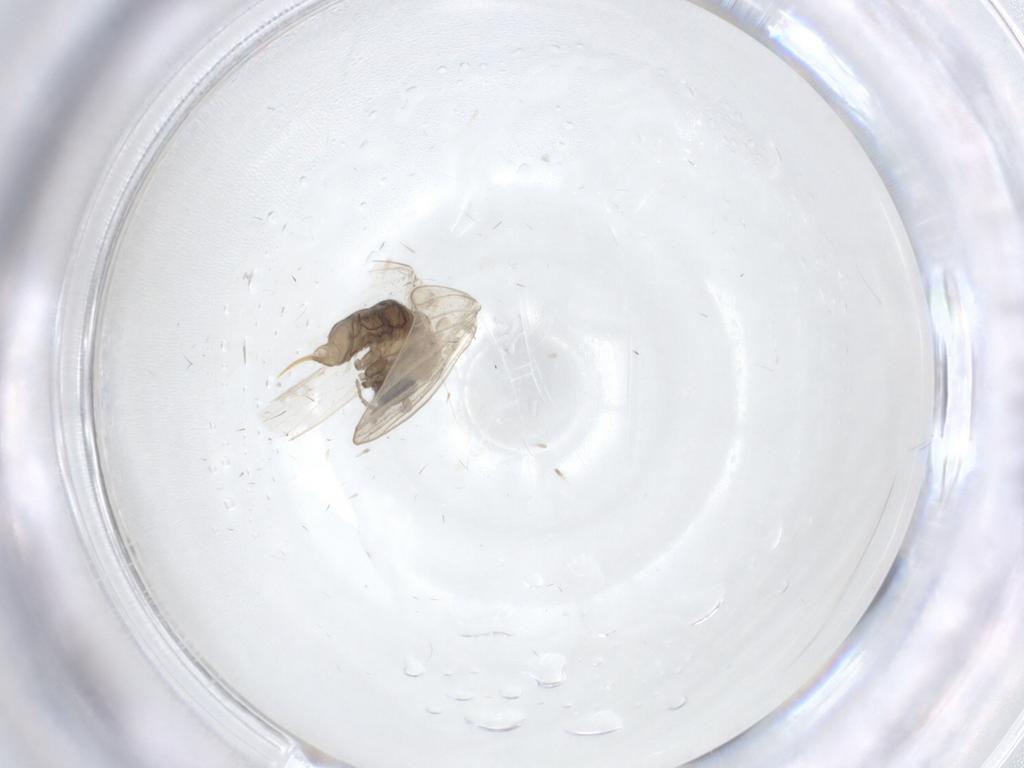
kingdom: Animalia
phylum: Arthropoda
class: Insecta
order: Diptera
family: Psychodidae
